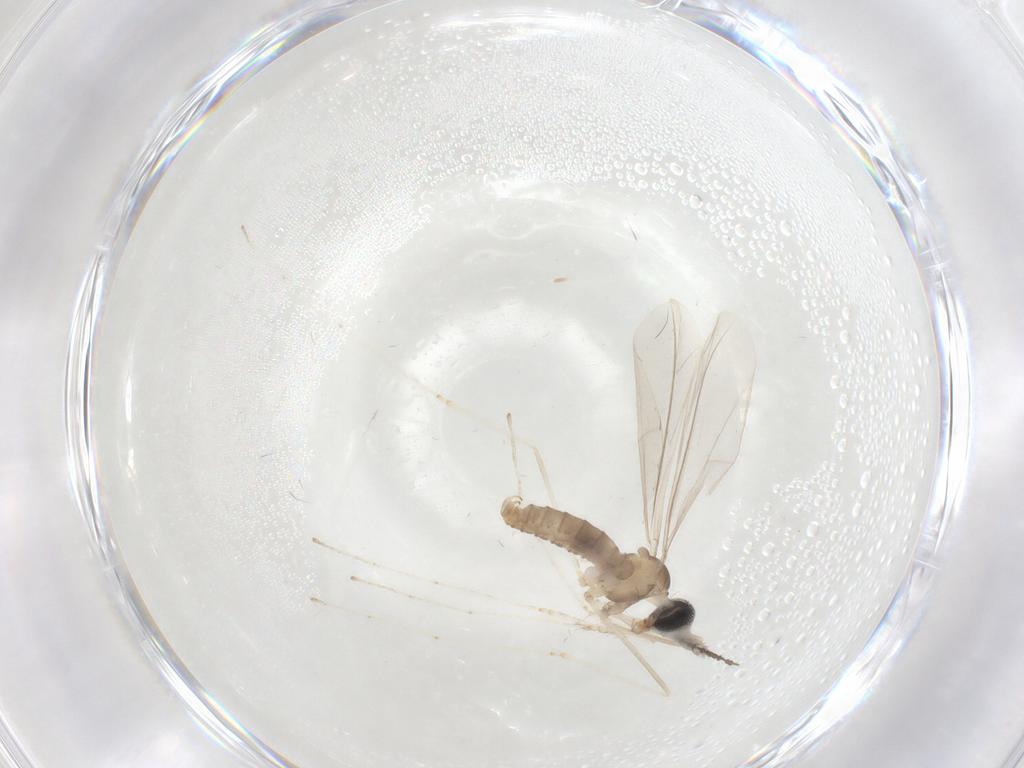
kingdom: Animalia
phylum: Arthropoda
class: Insecta
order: Diptera
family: Cecidomyiidae
